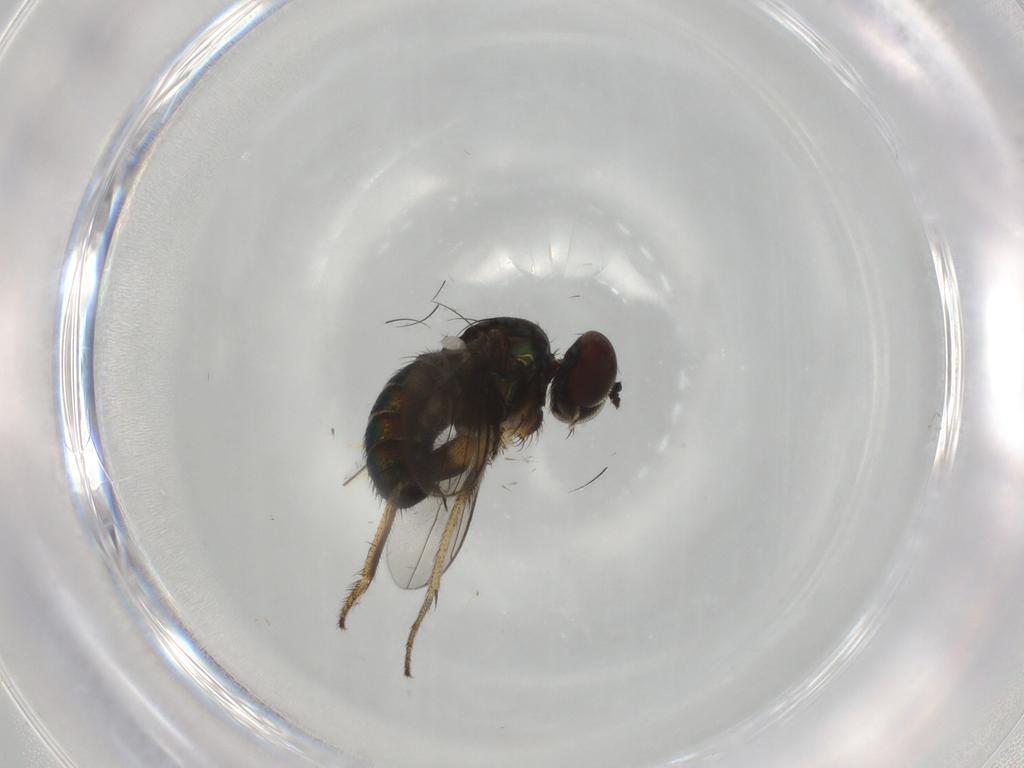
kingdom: Animalia
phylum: Arthropoda
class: Insecta
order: Diptera
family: Dolichopodidae
